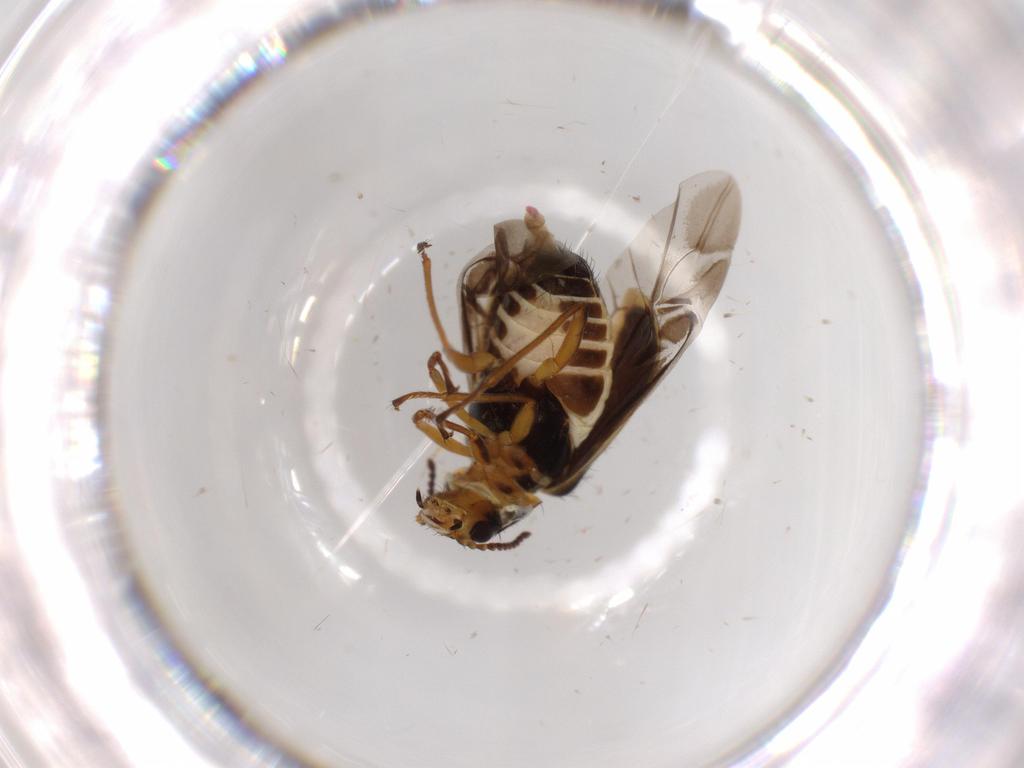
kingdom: Animalia
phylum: Arthropoda
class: Insecta
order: Coleoptera
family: Melyridae
